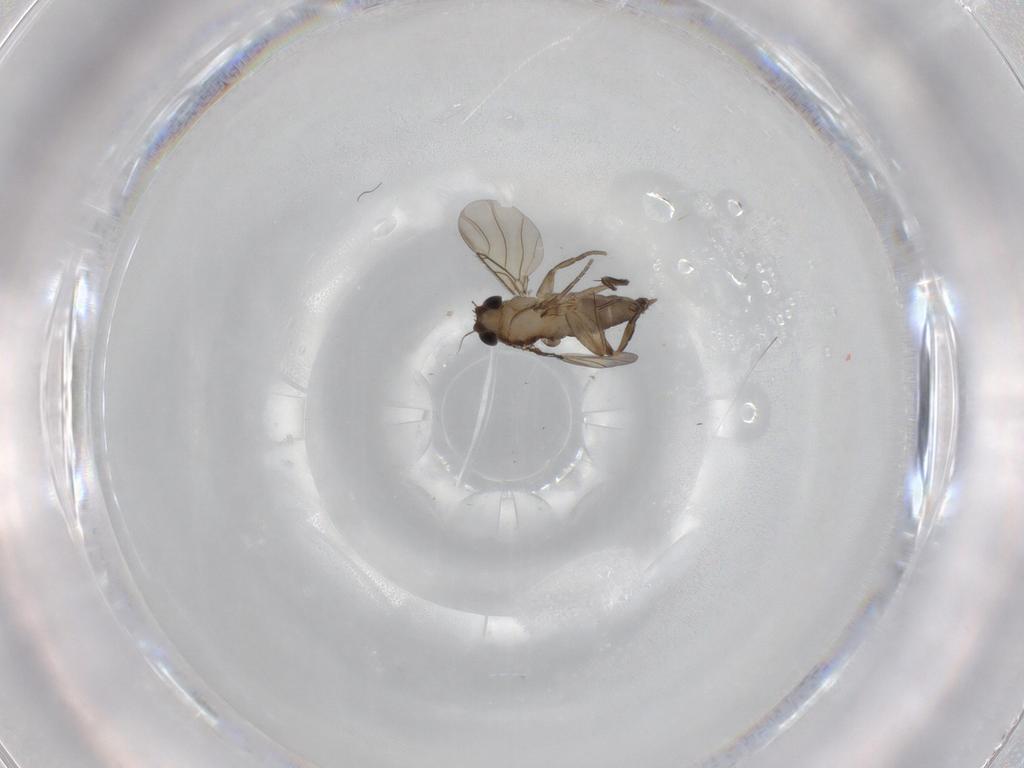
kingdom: Animalia
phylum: Arthropoda
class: Insecta
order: Diptera
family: Phoridae
